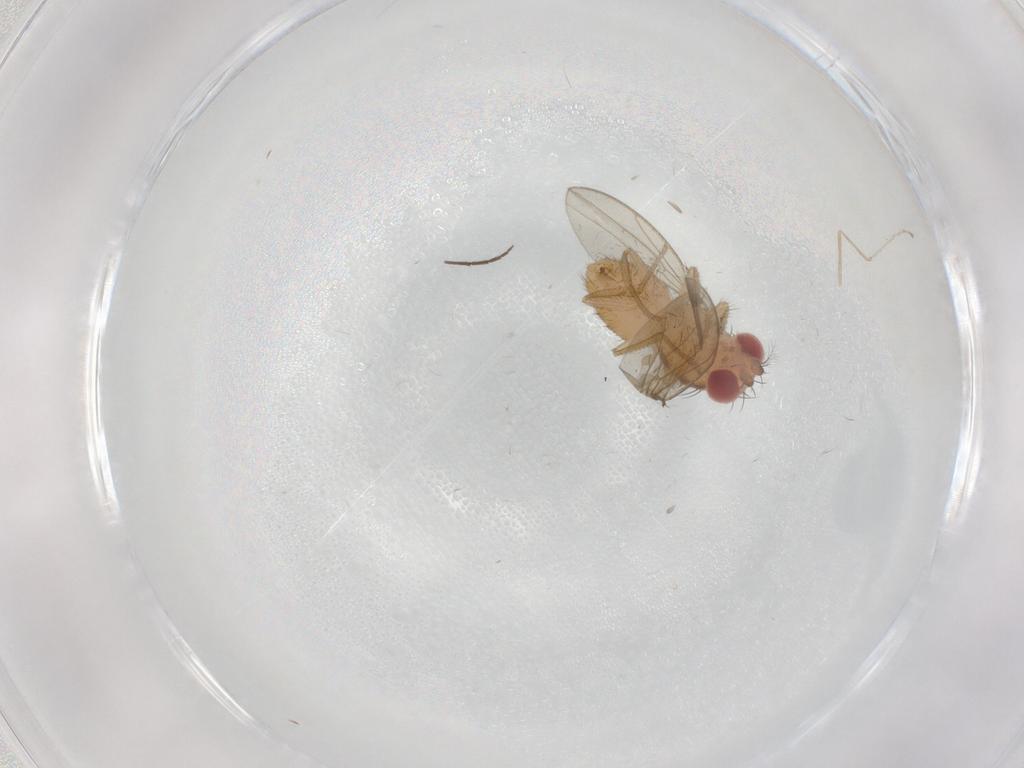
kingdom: Animalia
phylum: Arthropoda
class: Insecta
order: Diptera
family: Drosophilidae
